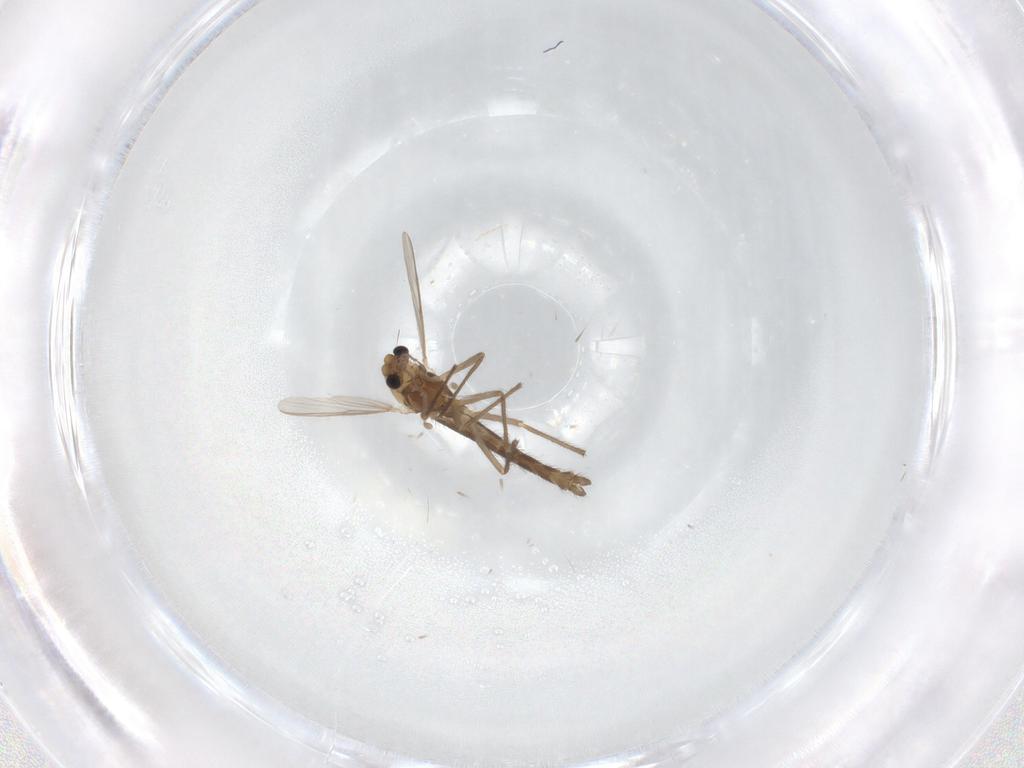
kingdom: Animalia
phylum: Arthropoda
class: Insecta
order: Diptera
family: Chironomidae
